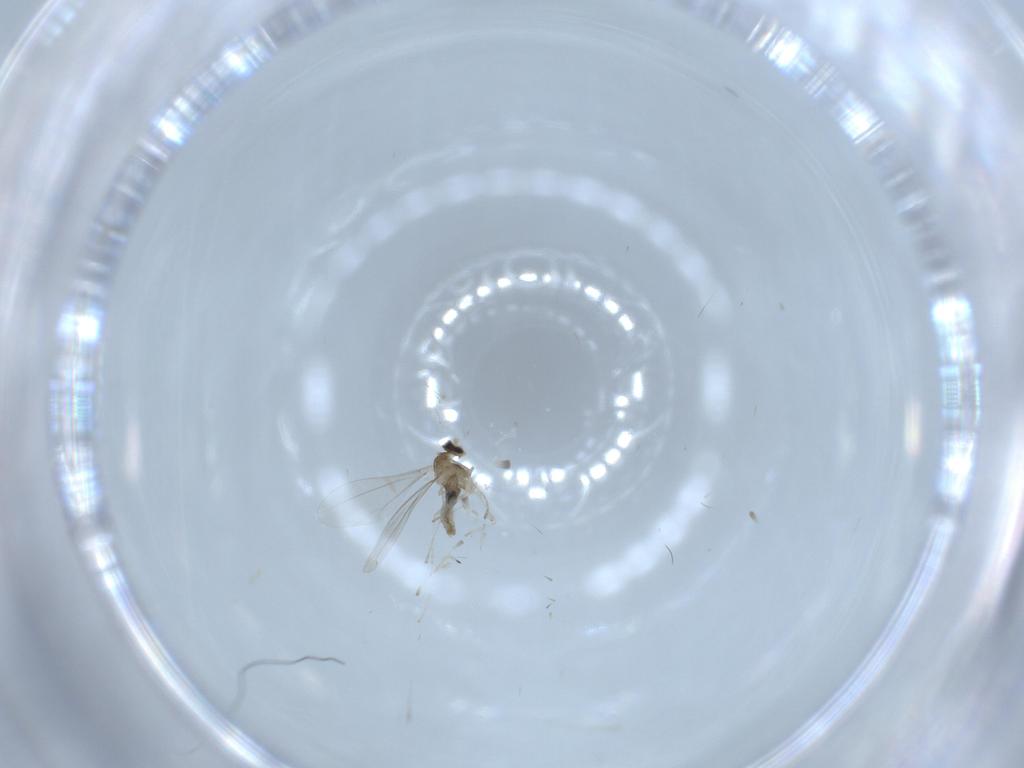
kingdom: Animalia
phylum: Arthropoda
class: Insecta
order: Diptera
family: Cecidomyiidae
